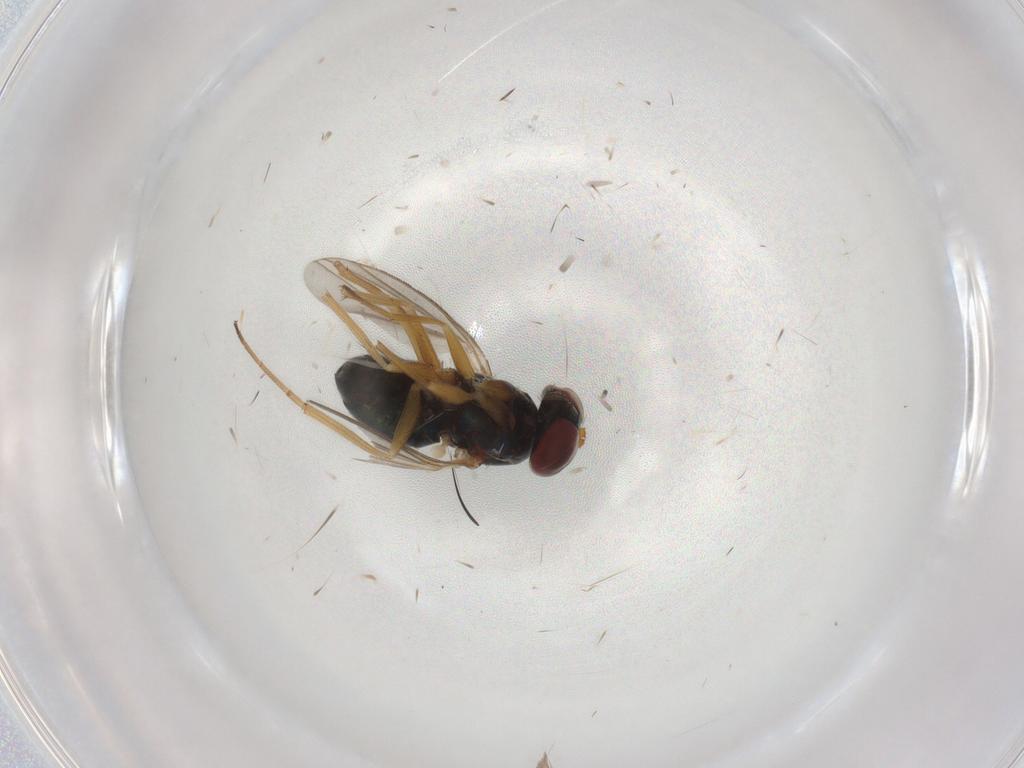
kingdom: Animalia
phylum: Arthropoda
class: Insecta
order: Diptera
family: Dolichopodidae
